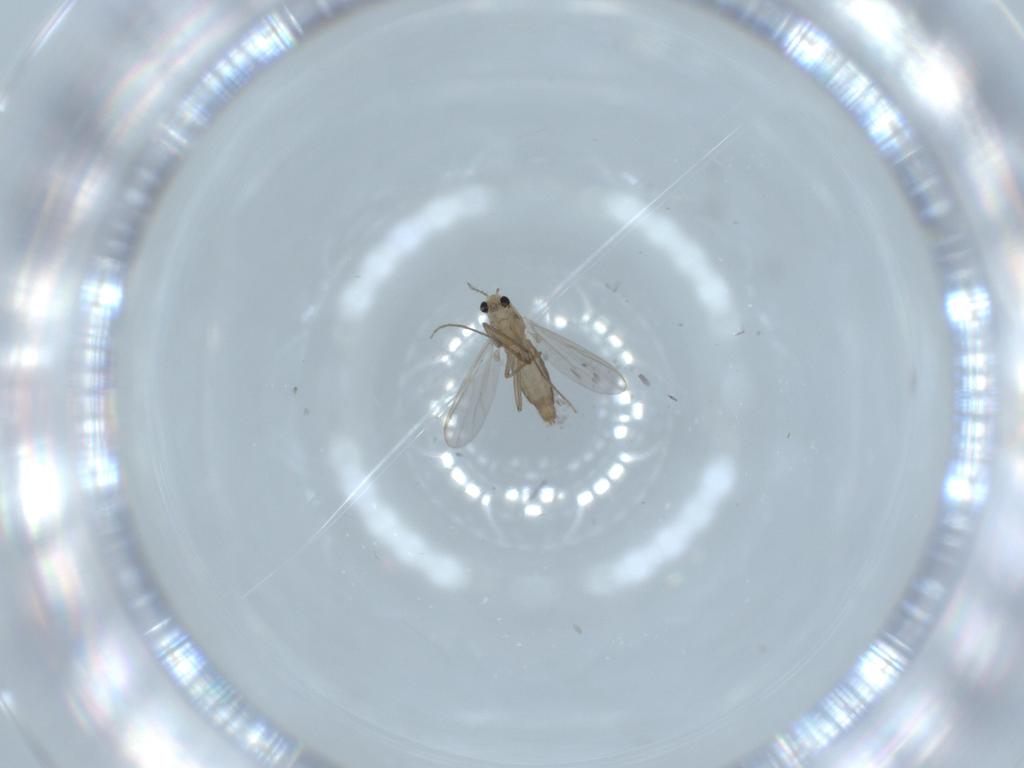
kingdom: Animalia
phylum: Arthropoda
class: Insecta
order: Diptera
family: Chironomidae
